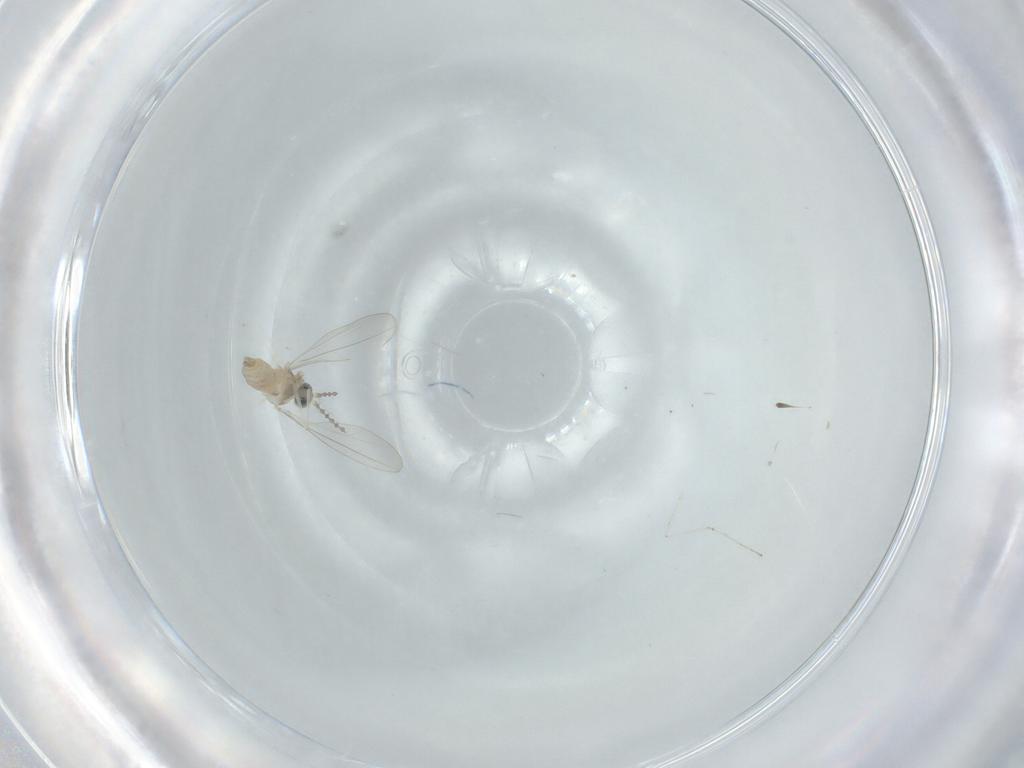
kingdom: Animalia
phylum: Arthropoda
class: Insecta
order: Diptera
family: Cecidomyiidae
